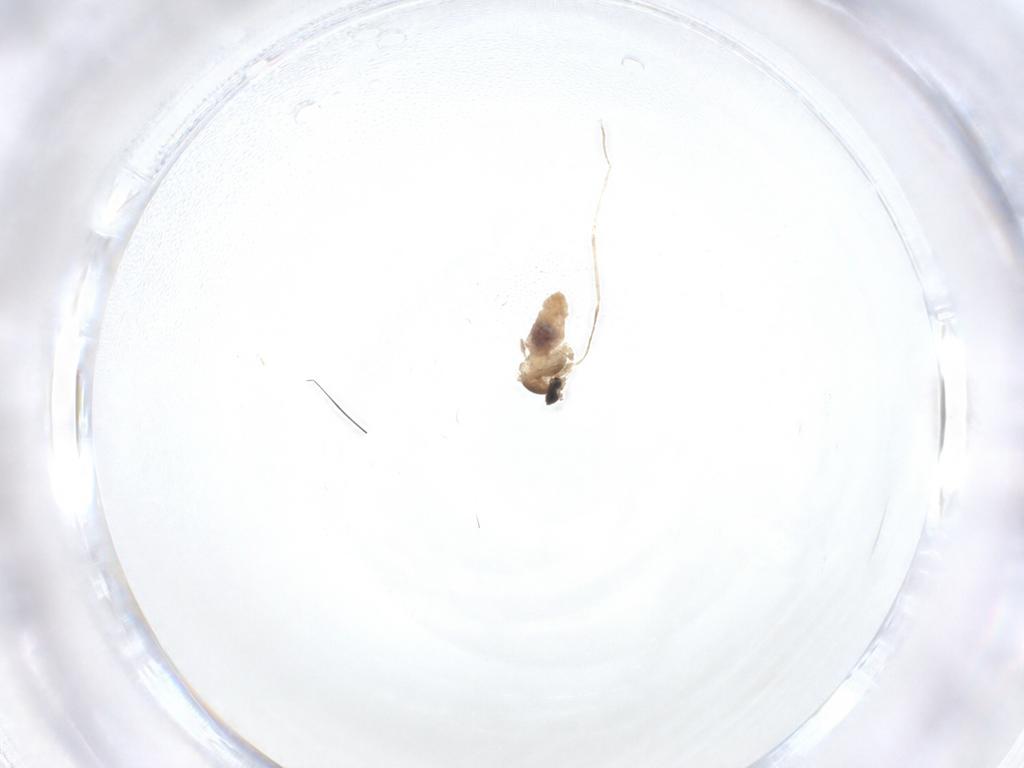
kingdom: Animalia
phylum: Arthropoda
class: Insecta
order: Diptera
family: Cecidomyiidae
